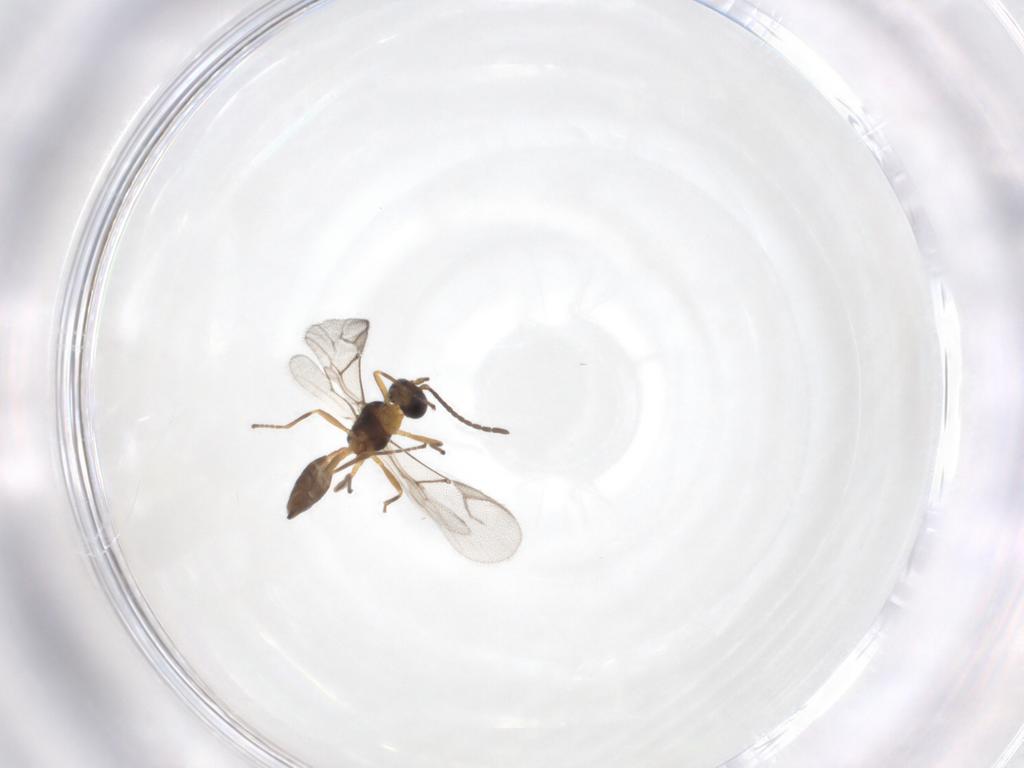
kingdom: Animalia
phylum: Arthropoda
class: Insecta
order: Hymenoptera
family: Braconidae
